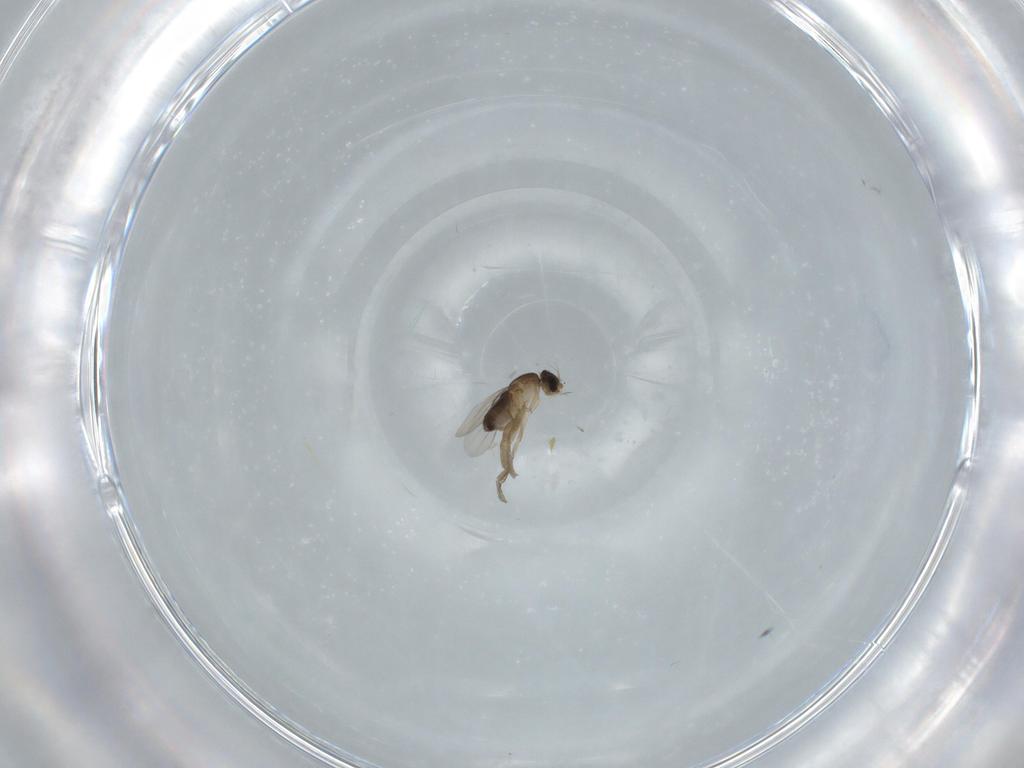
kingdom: Animalia
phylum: Arthropoda
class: Insecta
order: Diptera
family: Phoridae
